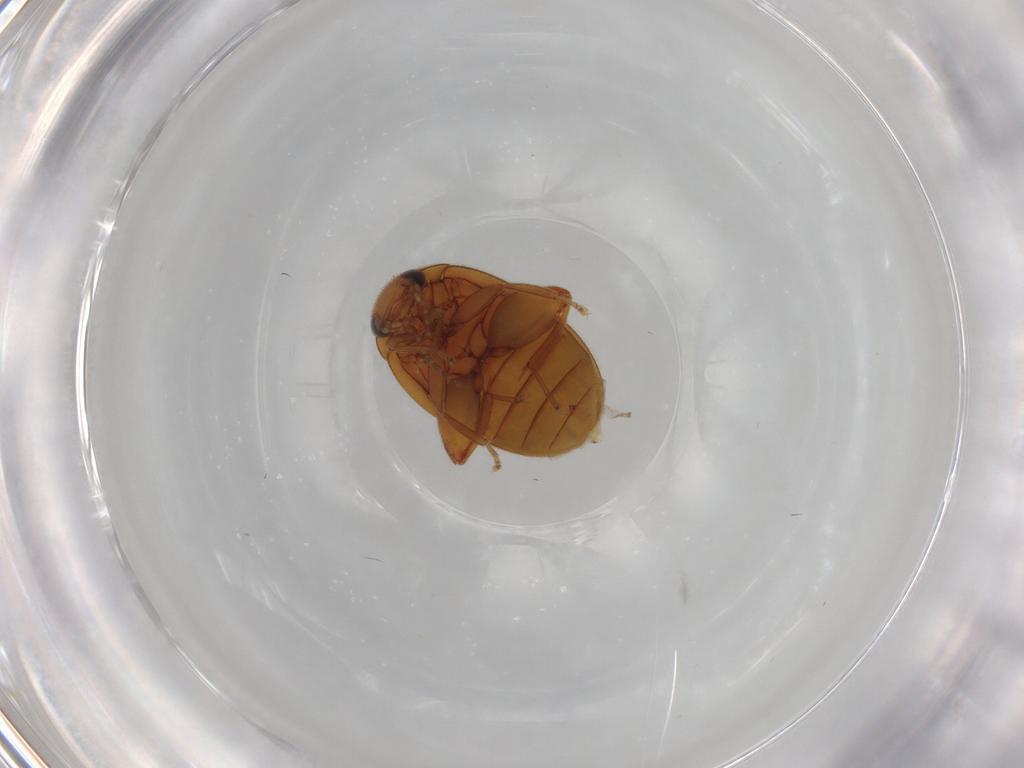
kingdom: Animalia
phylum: Arthropoda
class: Insecta
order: Coleoptera
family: Scirtidae
